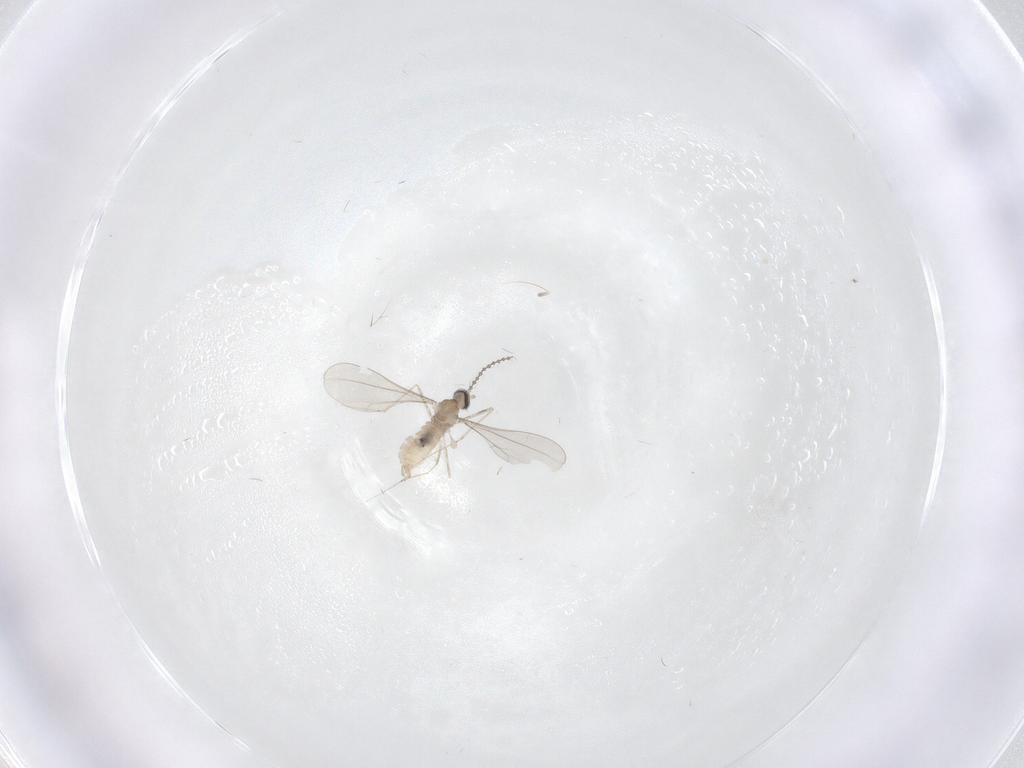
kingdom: Animalia
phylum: Arthropoda
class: Insecta
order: Diptera
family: Cecidomyiidae
